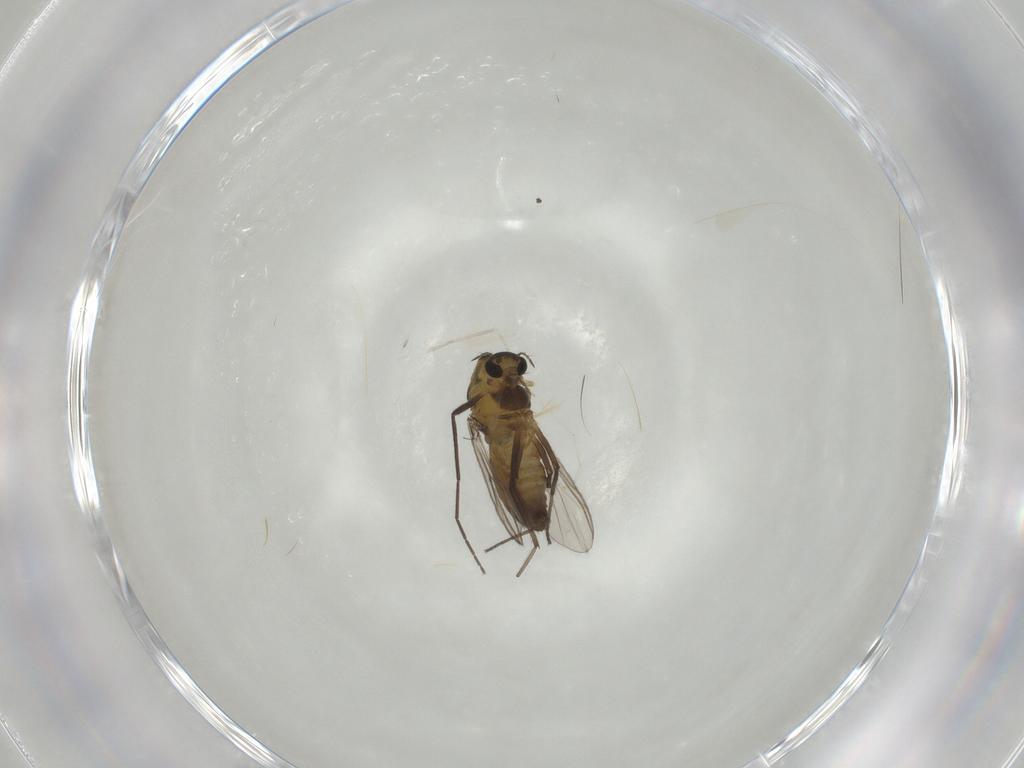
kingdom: Animalia
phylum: Arthropoda
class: Insecta
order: Diptera
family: Chironomidae
